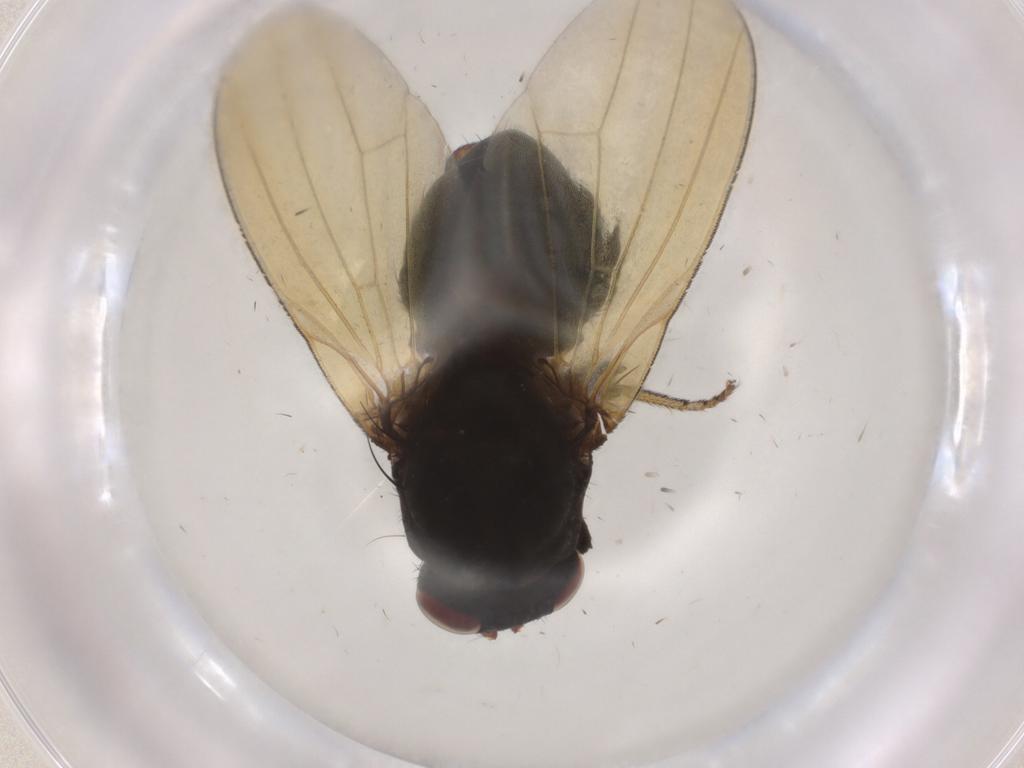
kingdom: Animalia
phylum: Arthropoda
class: Insecta
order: Diptera
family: Lauxaniidae
